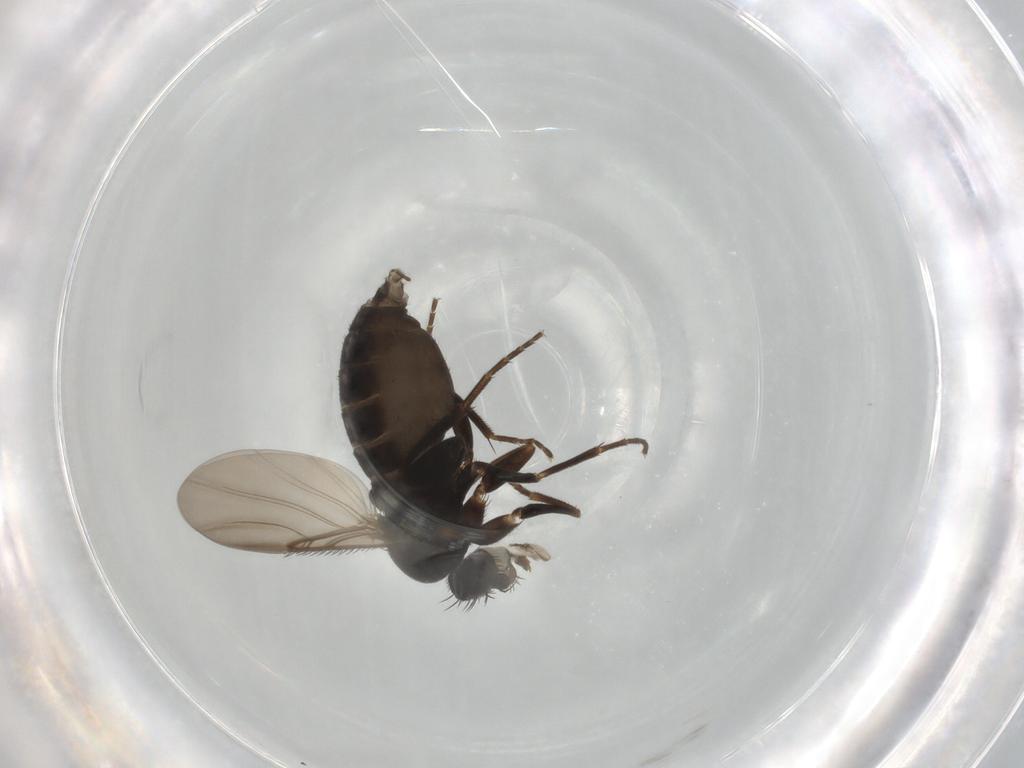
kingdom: Animalia
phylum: Arthropoda
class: Insecta
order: Diptera
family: Phoridae
